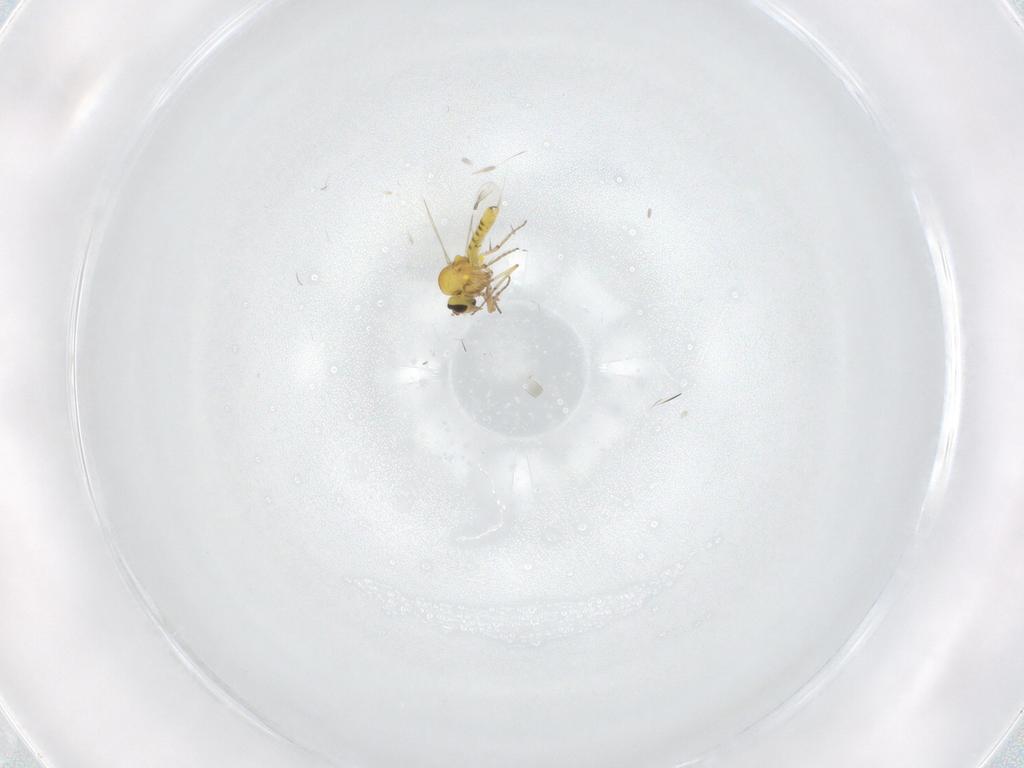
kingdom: Animalia
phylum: Arthropoda
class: Insecta
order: Diptera
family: Ceratopogonidae
